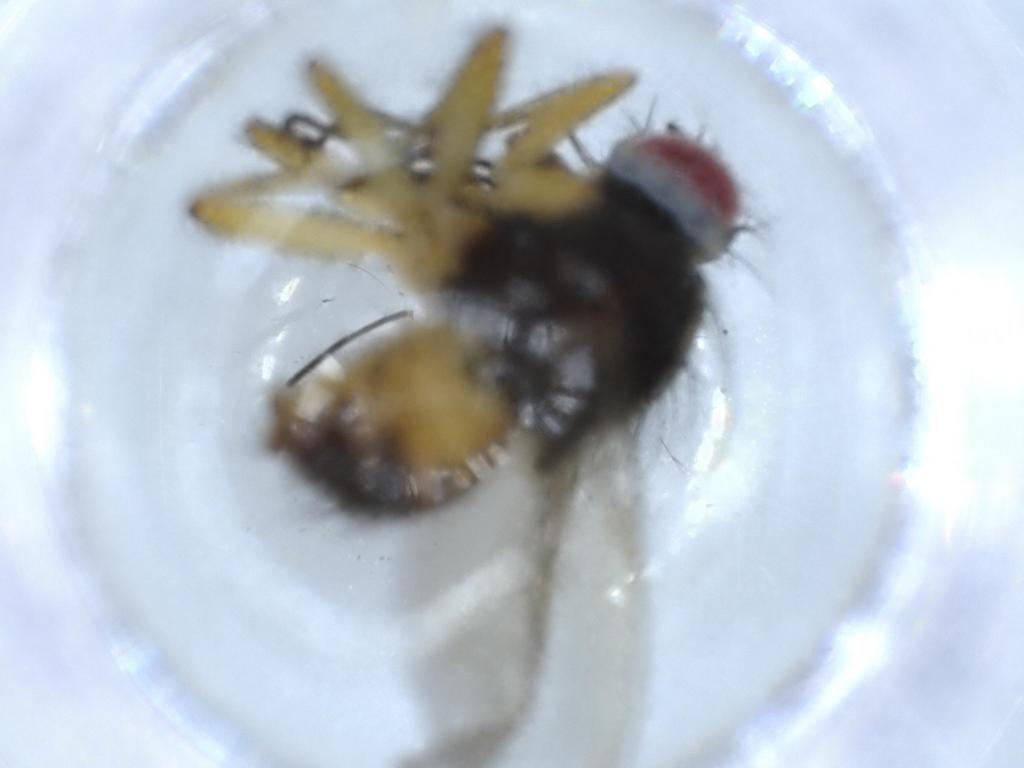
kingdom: Animalia
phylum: Arthropoda
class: Insecta
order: Diptera
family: Muscidae
